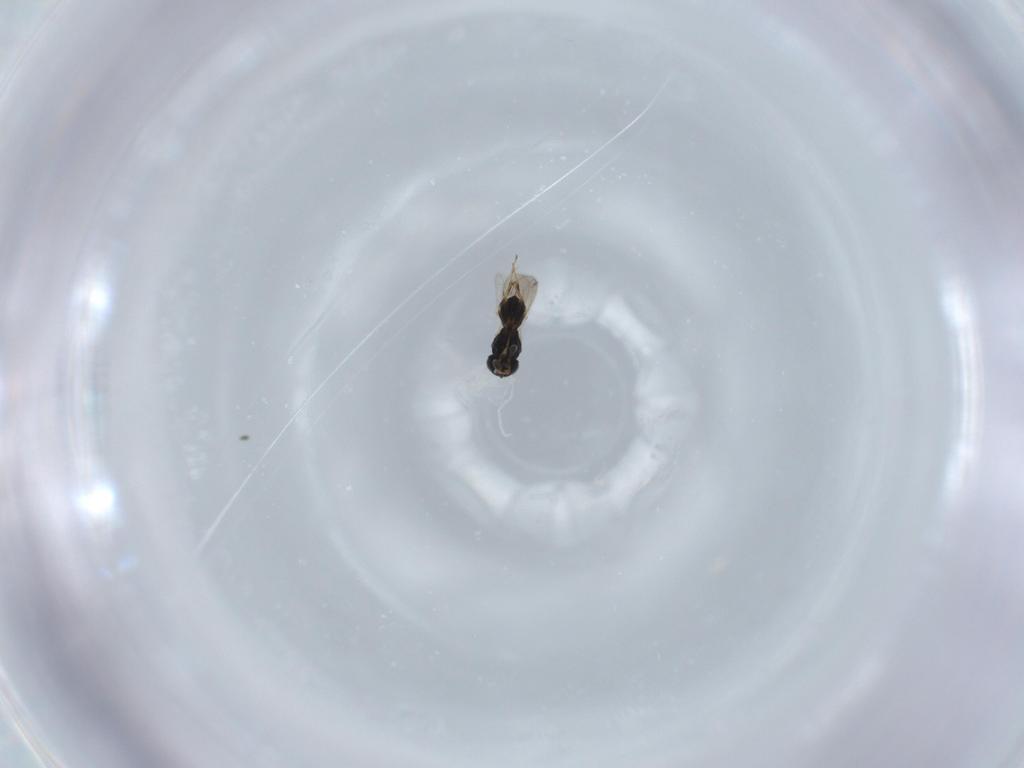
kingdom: Animalia
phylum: Arthropoda
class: Insecta
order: Hymenoptera
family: Scelionidae
